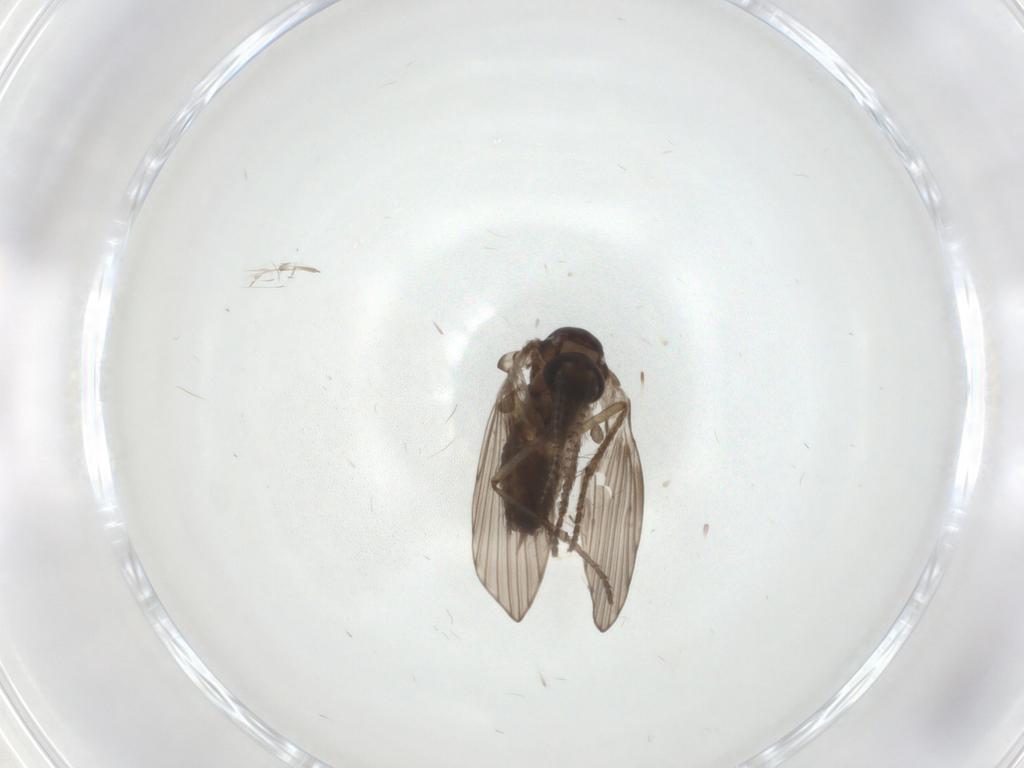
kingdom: Animalia
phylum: Arthropoda
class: Insecta
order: Diptera
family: Psychodidae
